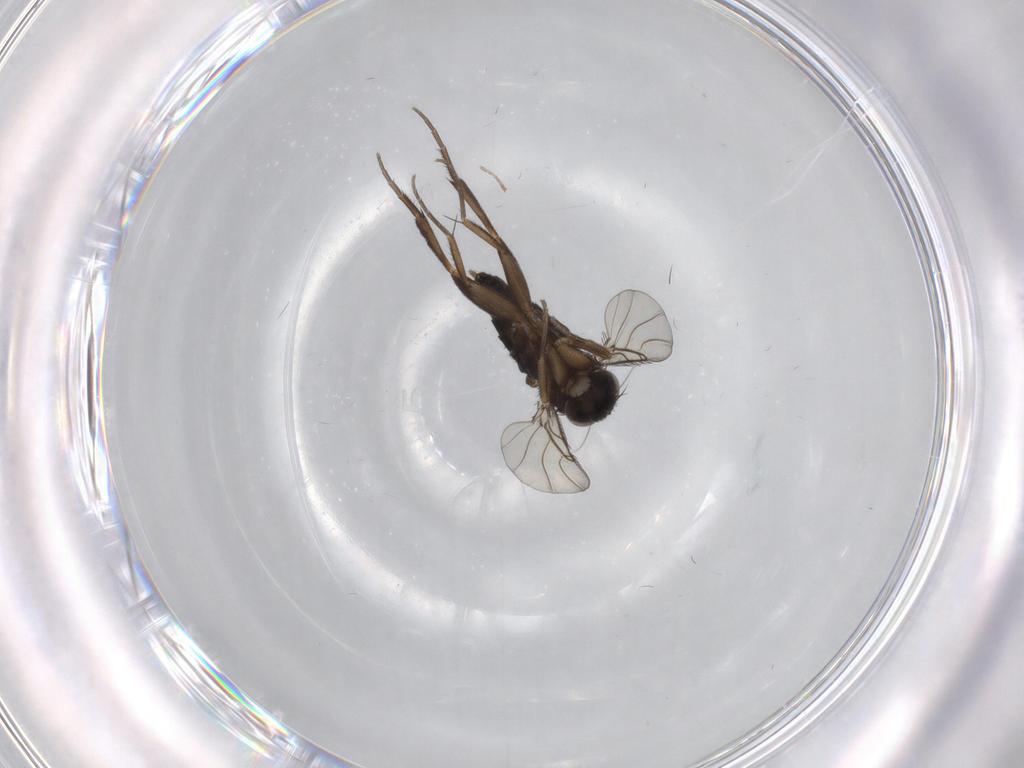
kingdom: Animalia
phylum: Arthropoda
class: Insecta
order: Diptera
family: Phoridae
